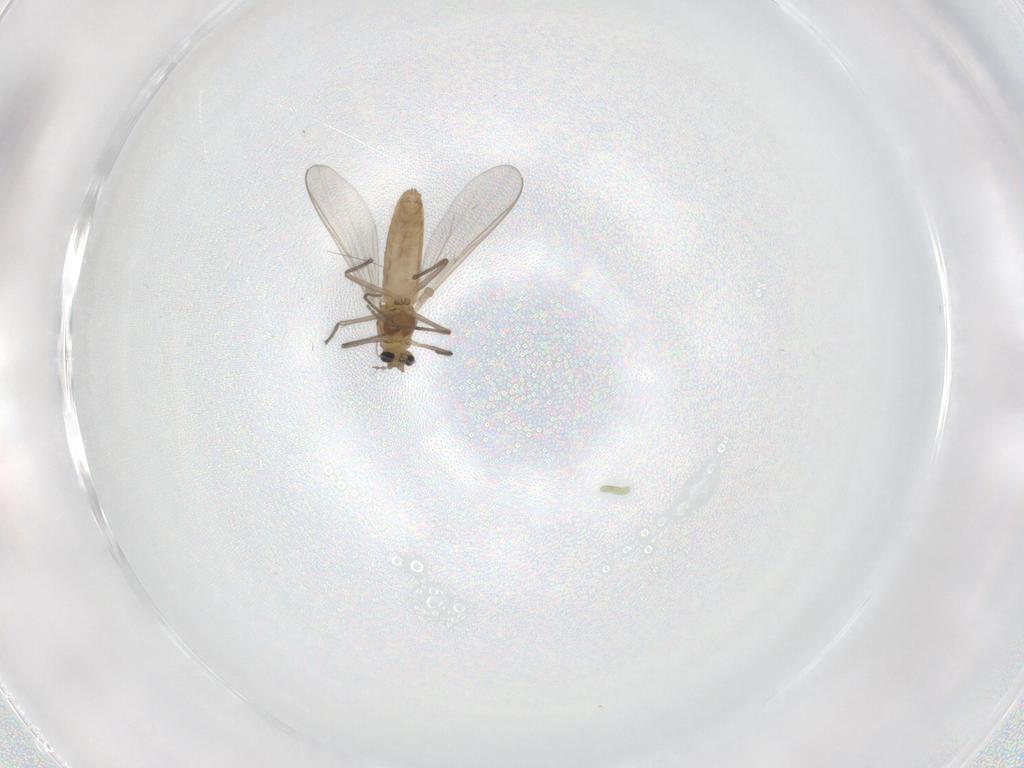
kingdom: Animalia
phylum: Arthropoda
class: Insecta
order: Diptera
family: Chironomidae
